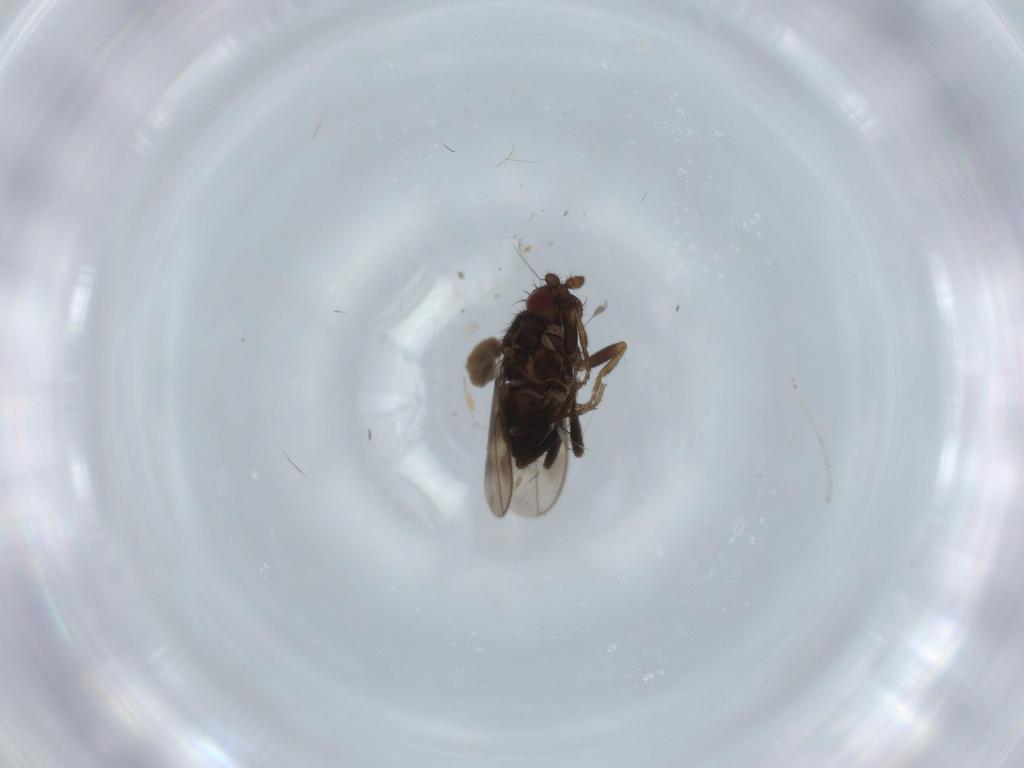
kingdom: Animalia
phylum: Arthropoda
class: Insecta
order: Diptera
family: Sphaeroceridae
